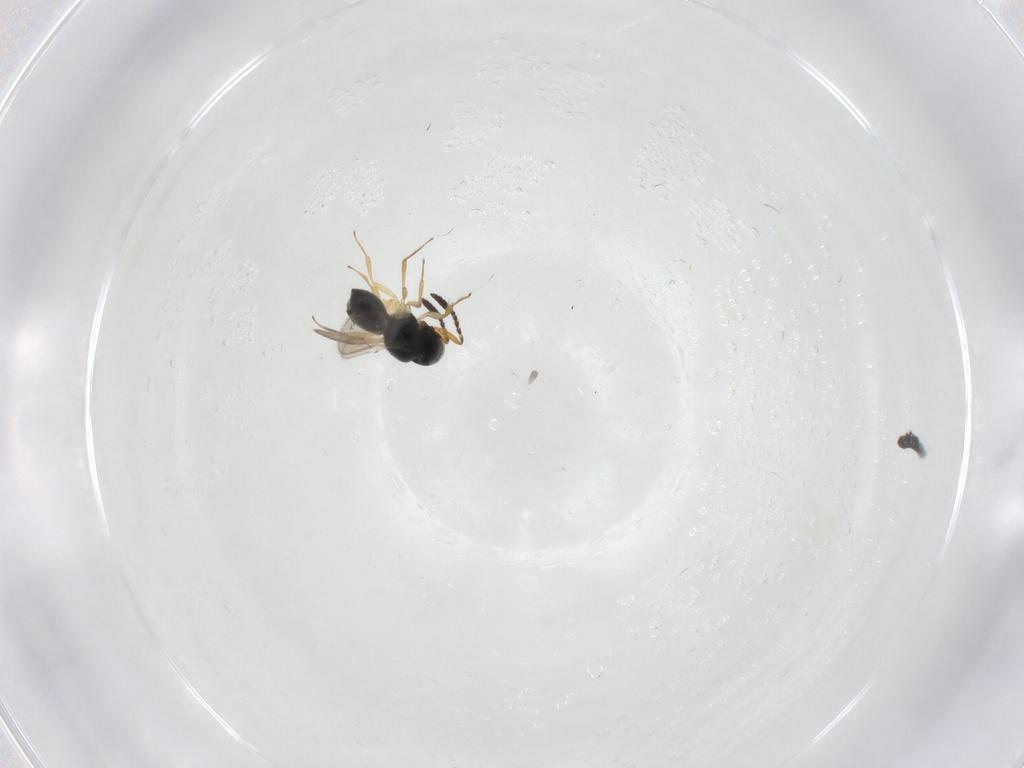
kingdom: Animalia
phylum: Arthropoda
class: Insecta
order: Hymenoptera
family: Scelionidae
